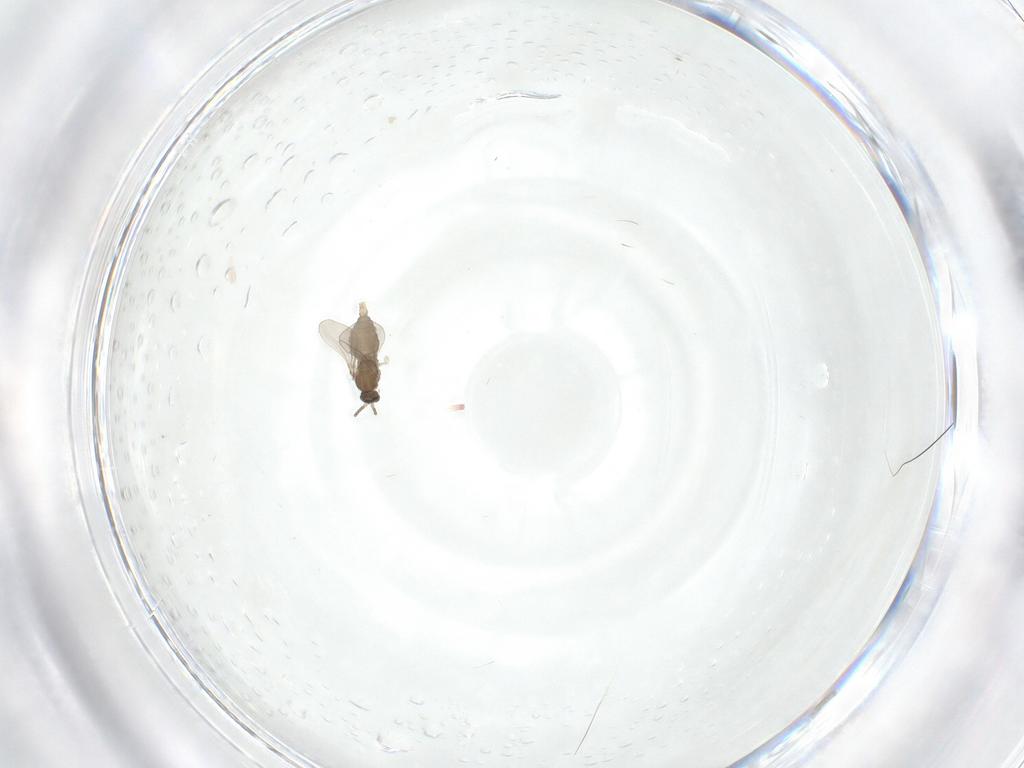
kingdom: Animalia
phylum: Arthropoda
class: Insecta
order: Diptera
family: Cecidomyiidae
